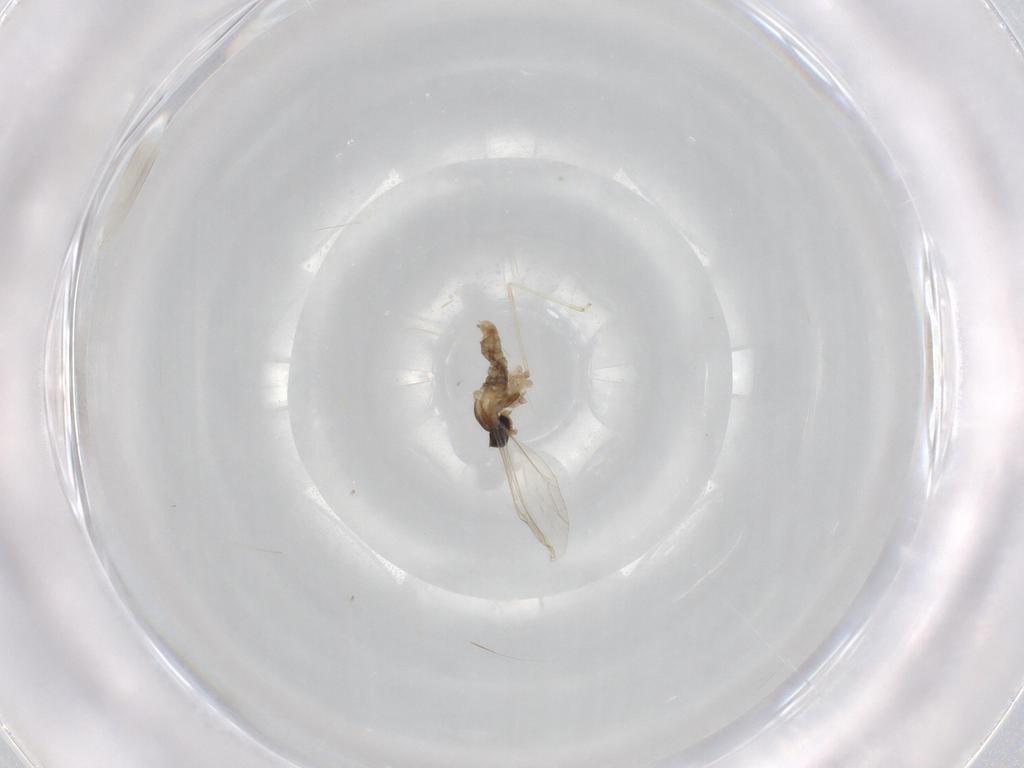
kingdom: Animalia
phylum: Arthropoda
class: Insecta
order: Diptera
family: Cecidomyiidae
